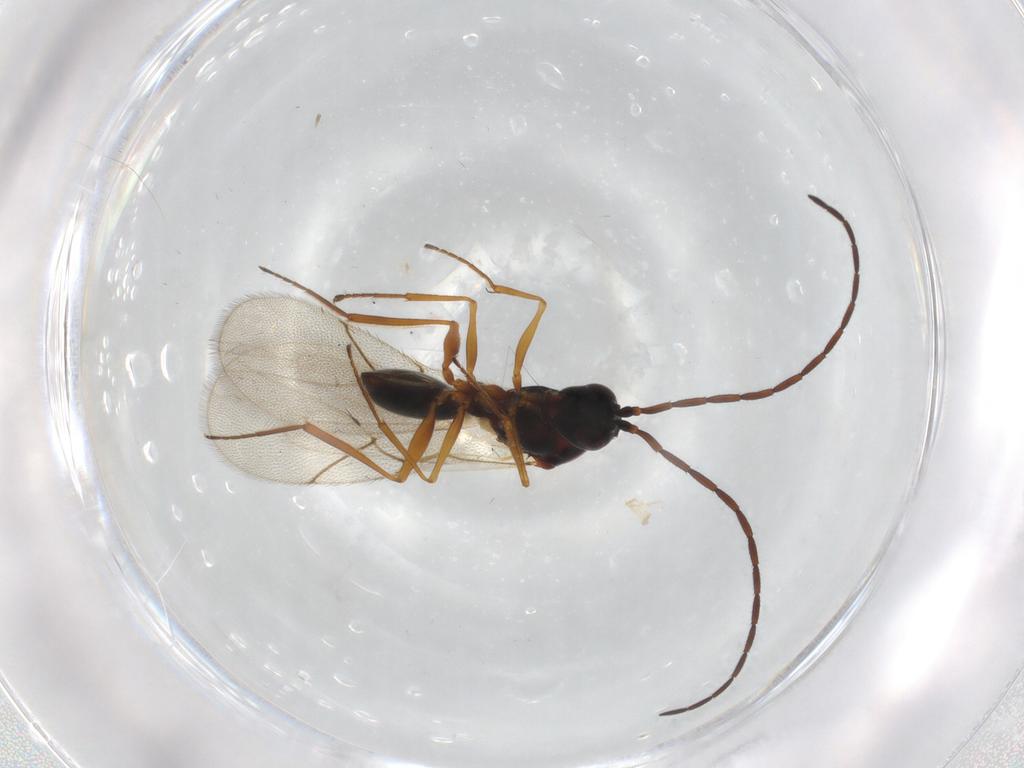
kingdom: Animalia
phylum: Arthropoda
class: Insecta
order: Hymenoptera
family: Figitidae
